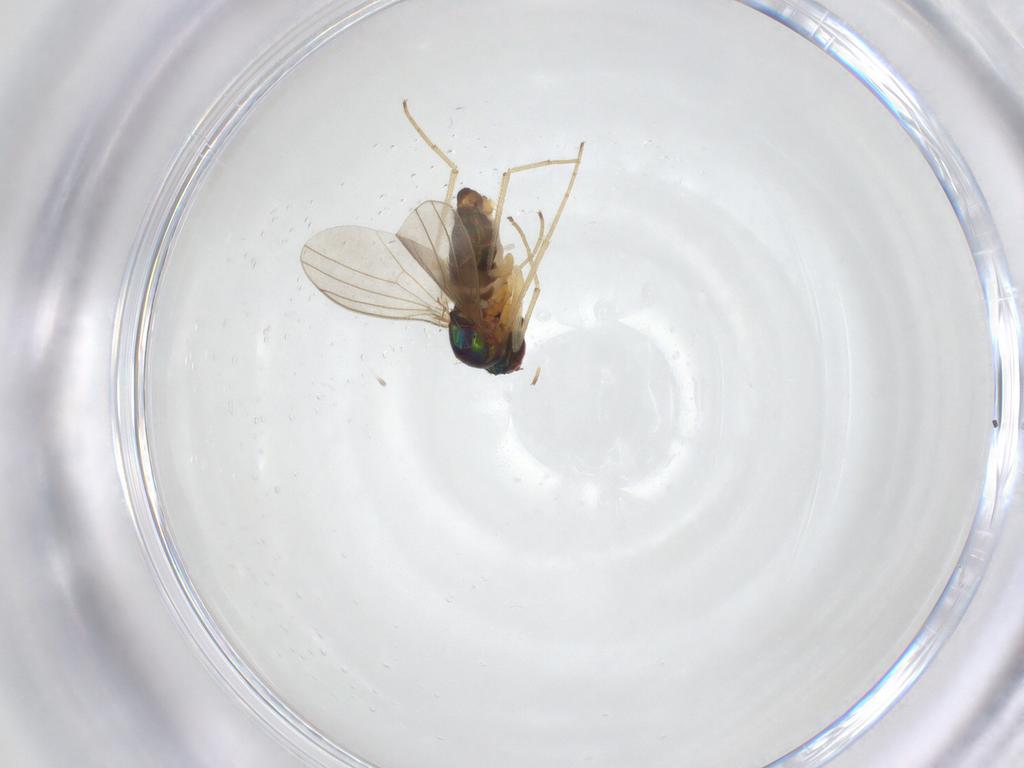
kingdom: Animalia
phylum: Arthropoda
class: Insecta
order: Diptera
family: Dolichopodidae
